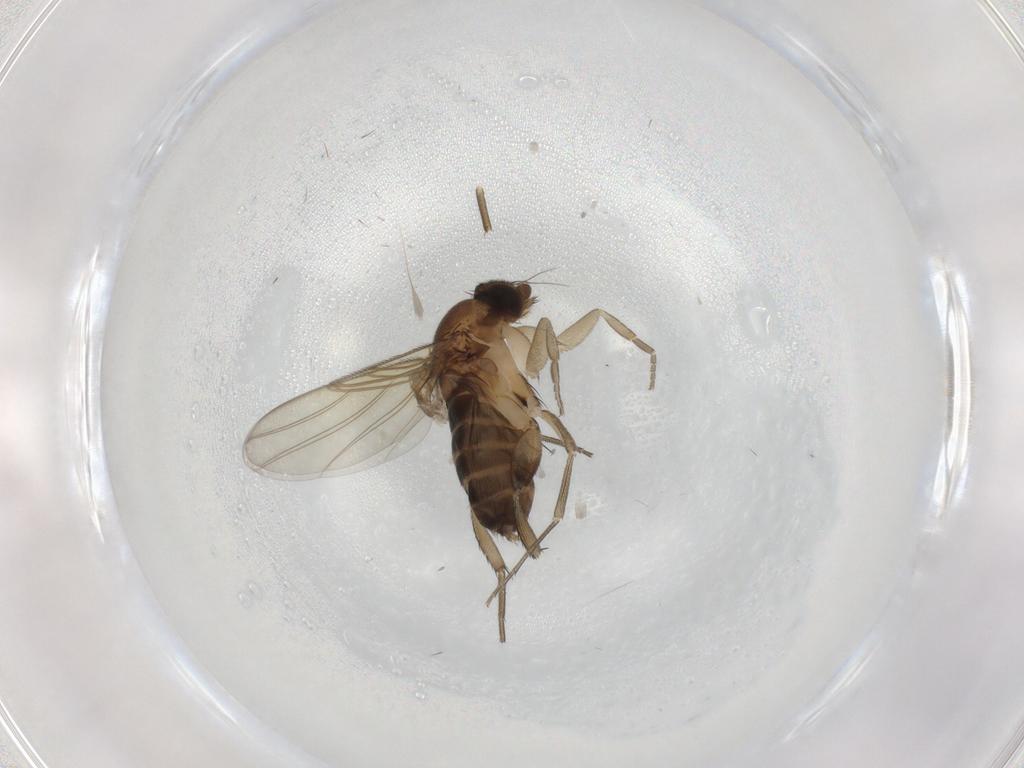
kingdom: Animalia
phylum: Arthropoda
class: Insecta
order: Diptera
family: Phoridae
